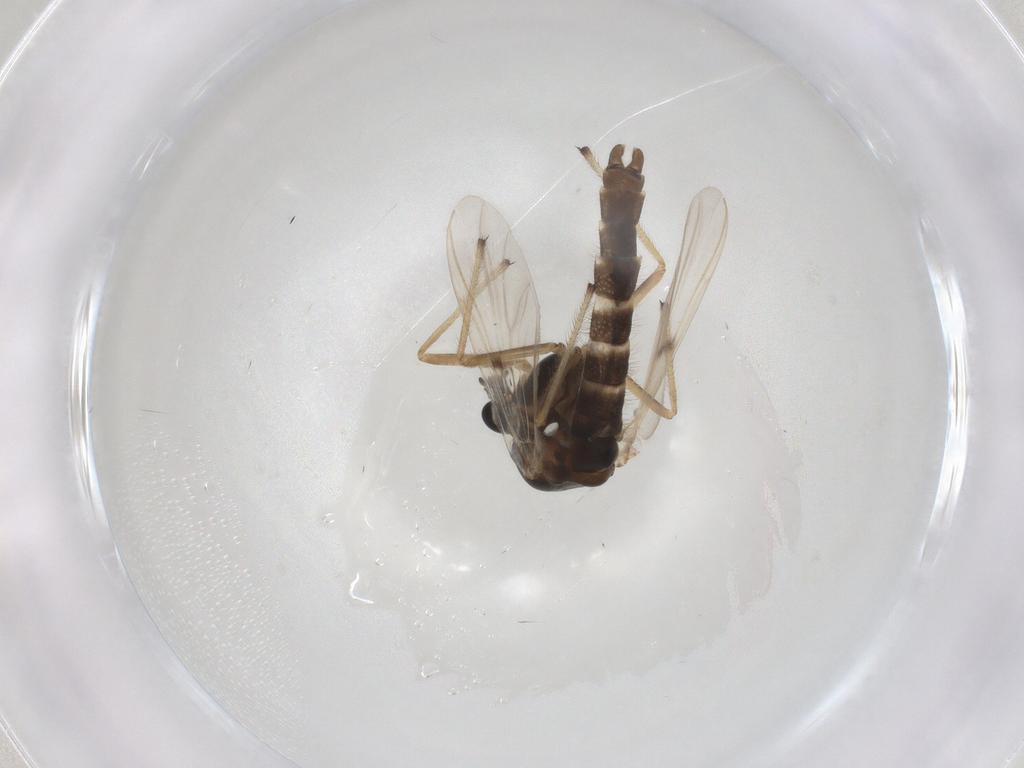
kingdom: Animalia
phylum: Arthropoda
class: Insecta
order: Diptera
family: Chironomidae
